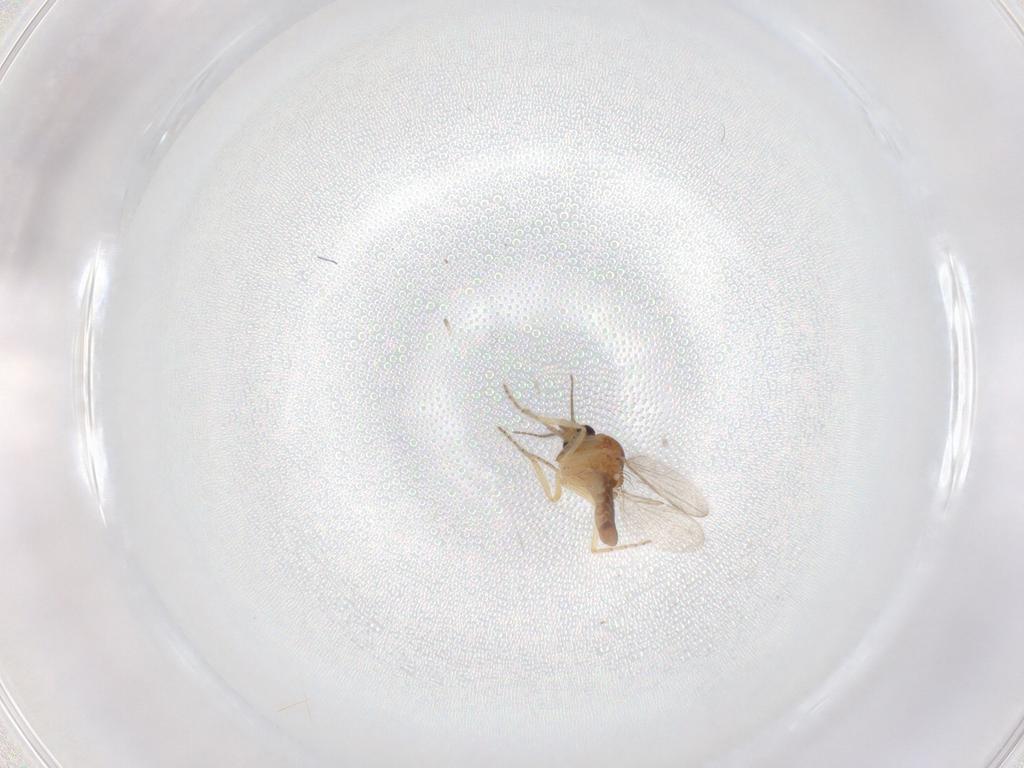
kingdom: Animalia
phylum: Arthropoda
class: Insecta
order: Diptera
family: Ceratopogonidae
